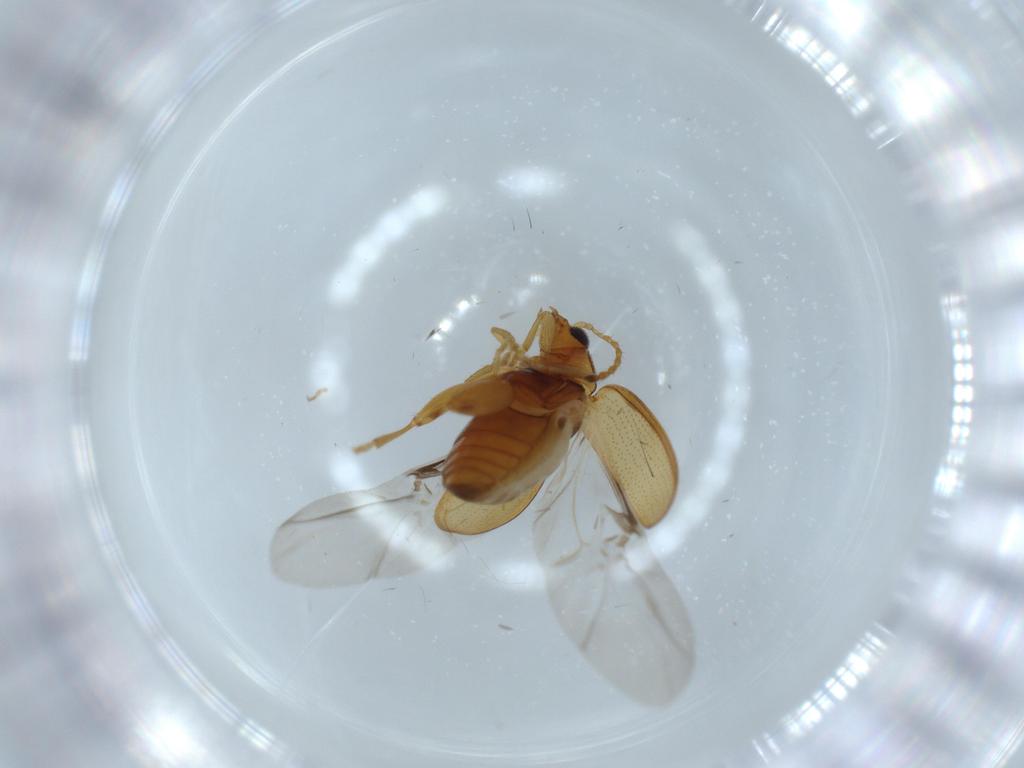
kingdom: Animalia
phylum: Arthropoda
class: Insecta
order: Coleoptera
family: Chrysomelidae
